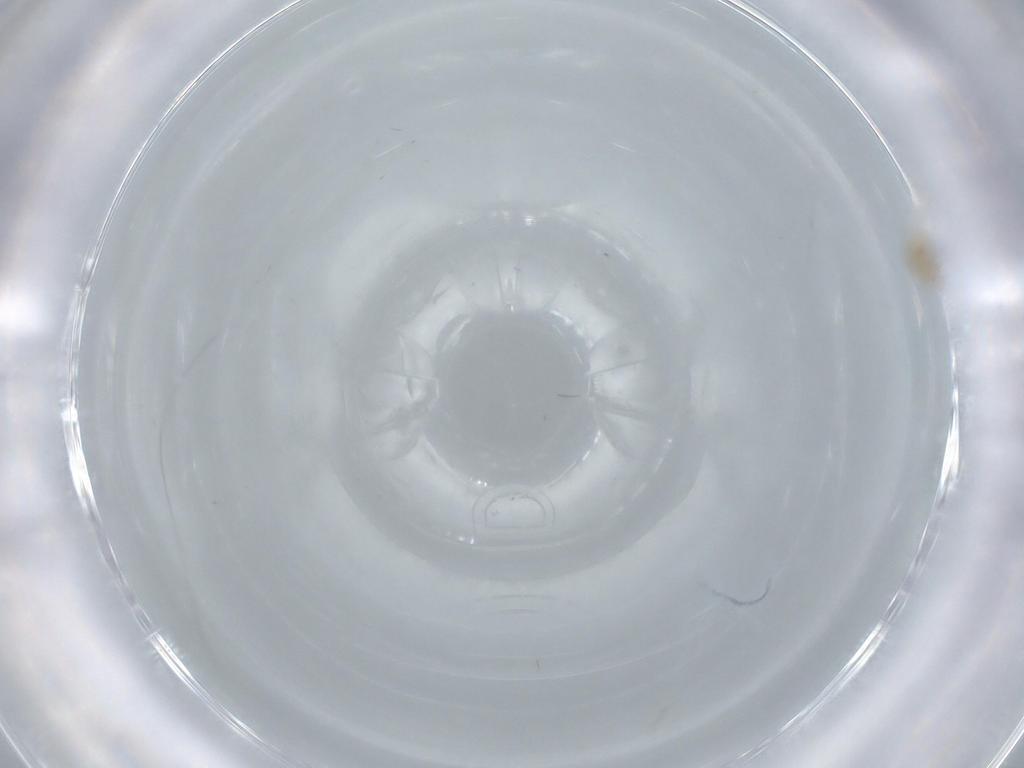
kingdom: Animalia
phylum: Arthropoda
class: Insecta
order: Diptera
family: Cecidomyiidae
